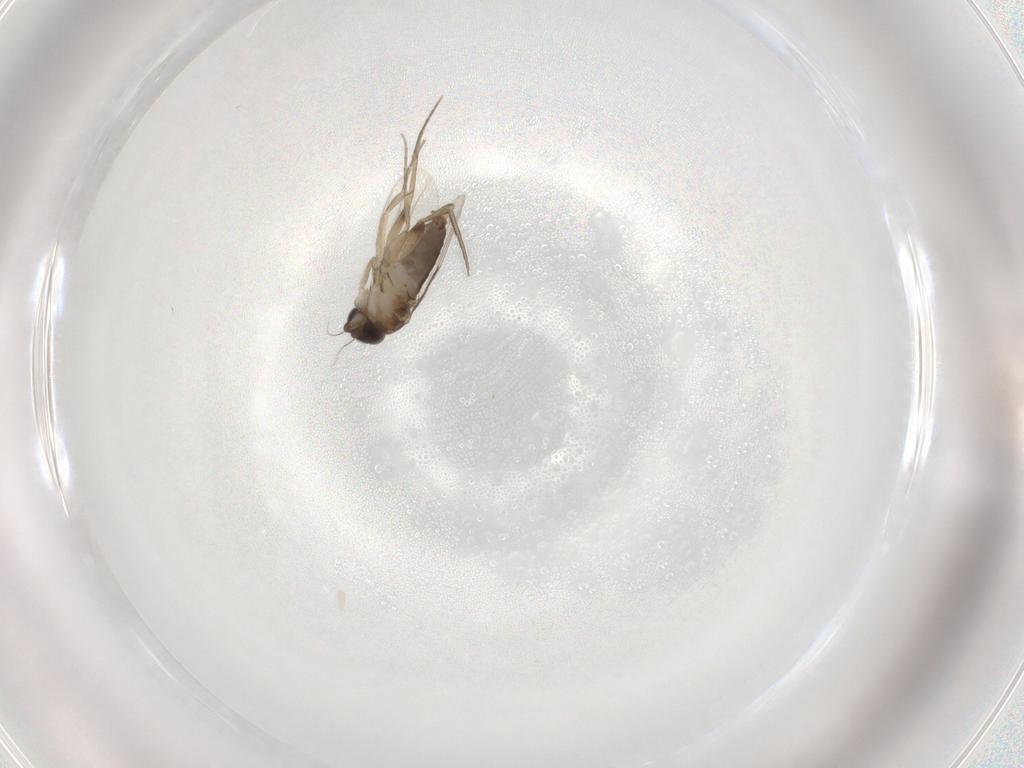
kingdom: Animalia
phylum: Arthropoda
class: Insecta
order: Diptera
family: Phoridae
